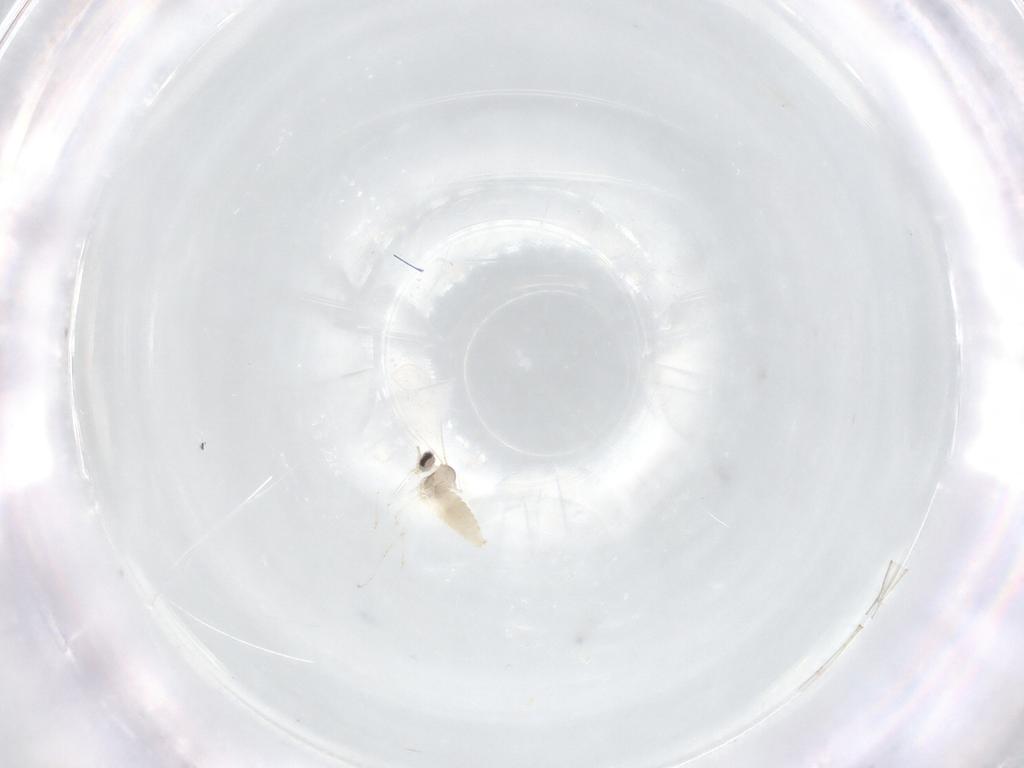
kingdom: Animalia
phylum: Arthropoda
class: Insecta
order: Diptera
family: Cecidomyiidae
